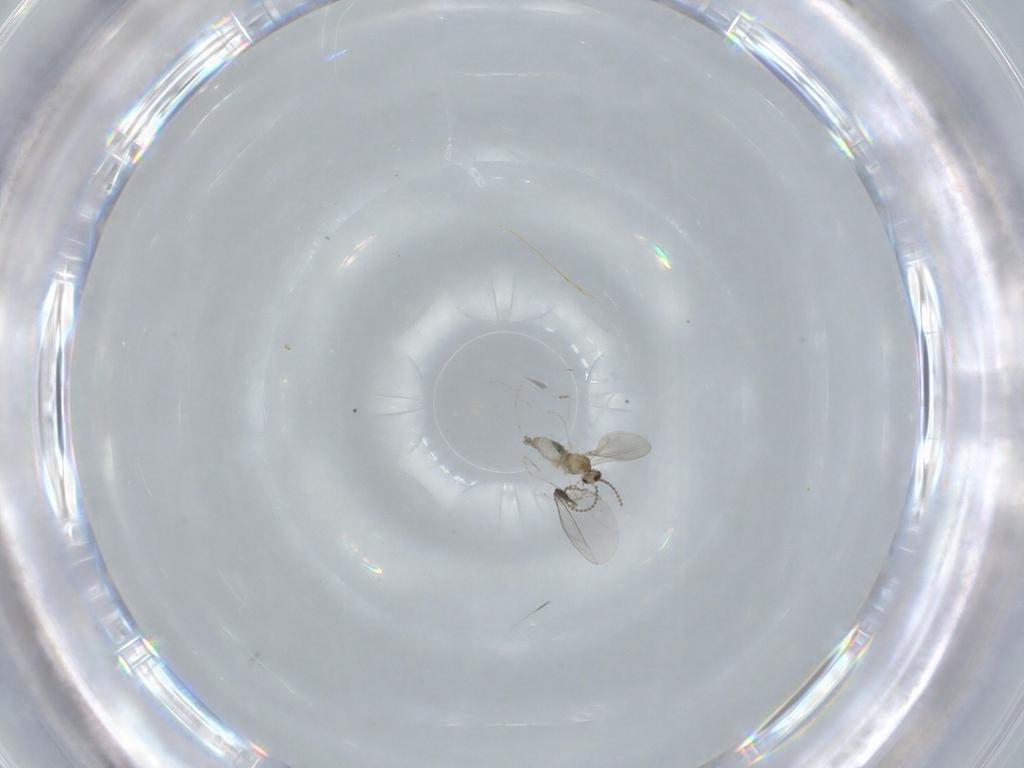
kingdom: Animalia
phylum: Arthropoda
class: Insecta
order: Diptera
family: Cecidomyiidae
